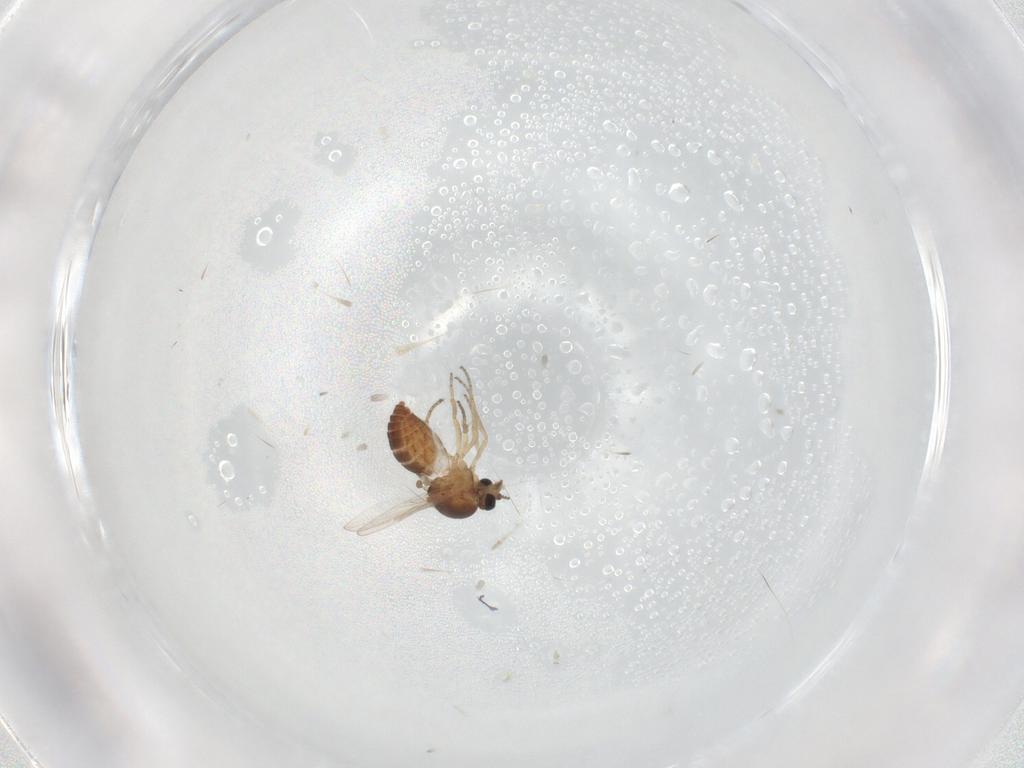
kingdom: Animalia
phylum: Arthropoda
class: Insecta
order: Diptera
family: Ceratopogonidae
